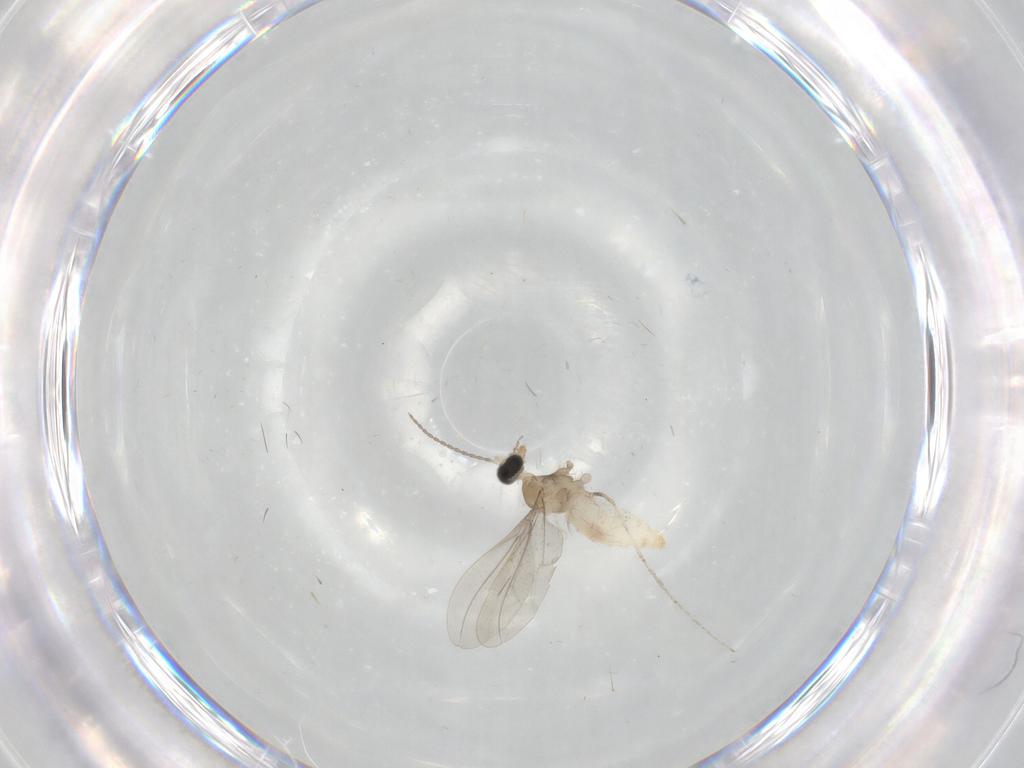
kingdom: Animalia
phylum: Arthropoda
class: Insecta
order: Diptera
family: Cecidomyiidae
